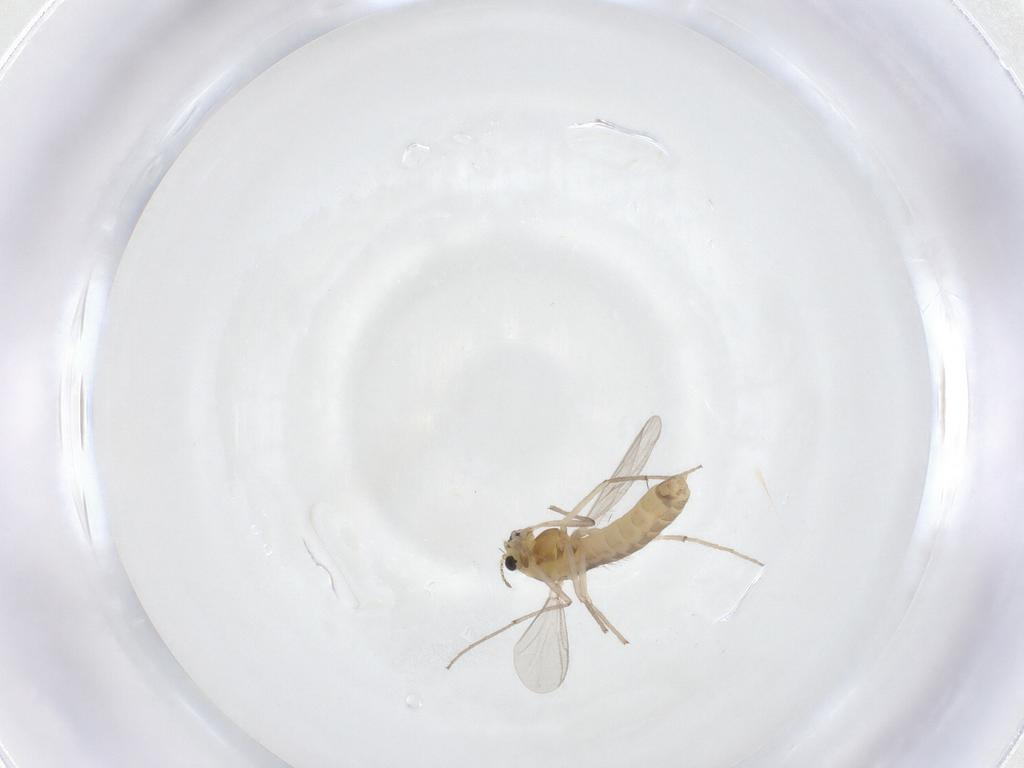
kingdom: Animalia
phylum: Arthropoda
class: Insecta
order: Diptera
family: Chironomidae
